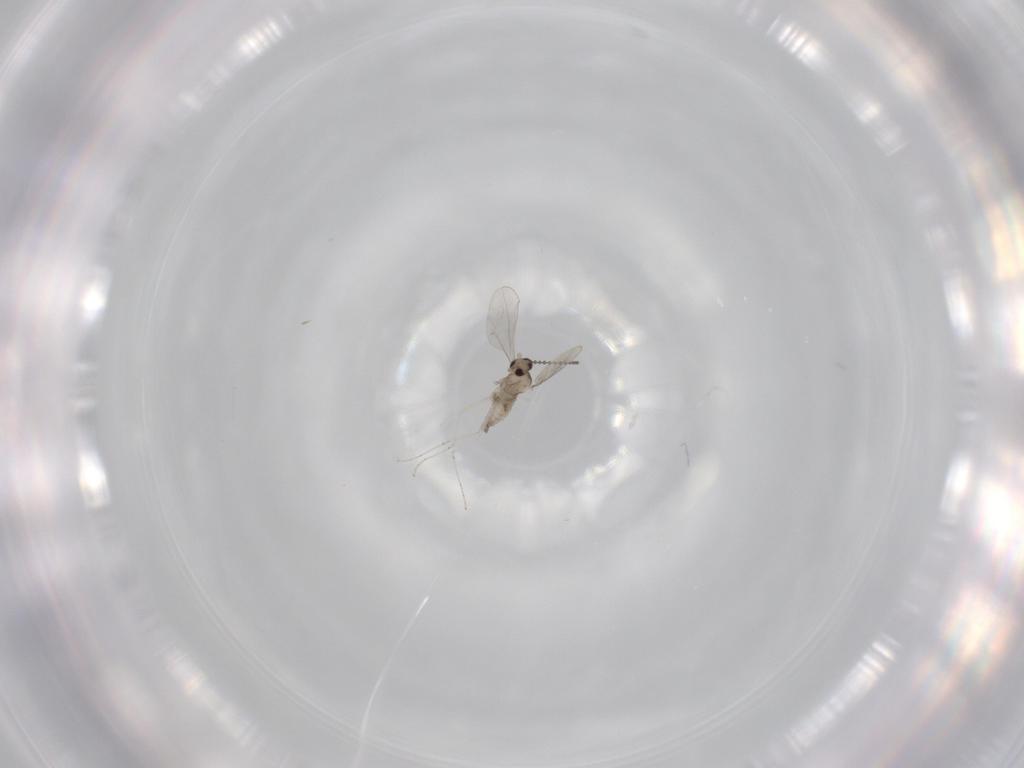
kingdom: Animalia
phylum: Arthropoda
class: Insecta
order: Diptera
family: Cecidomyiidae
